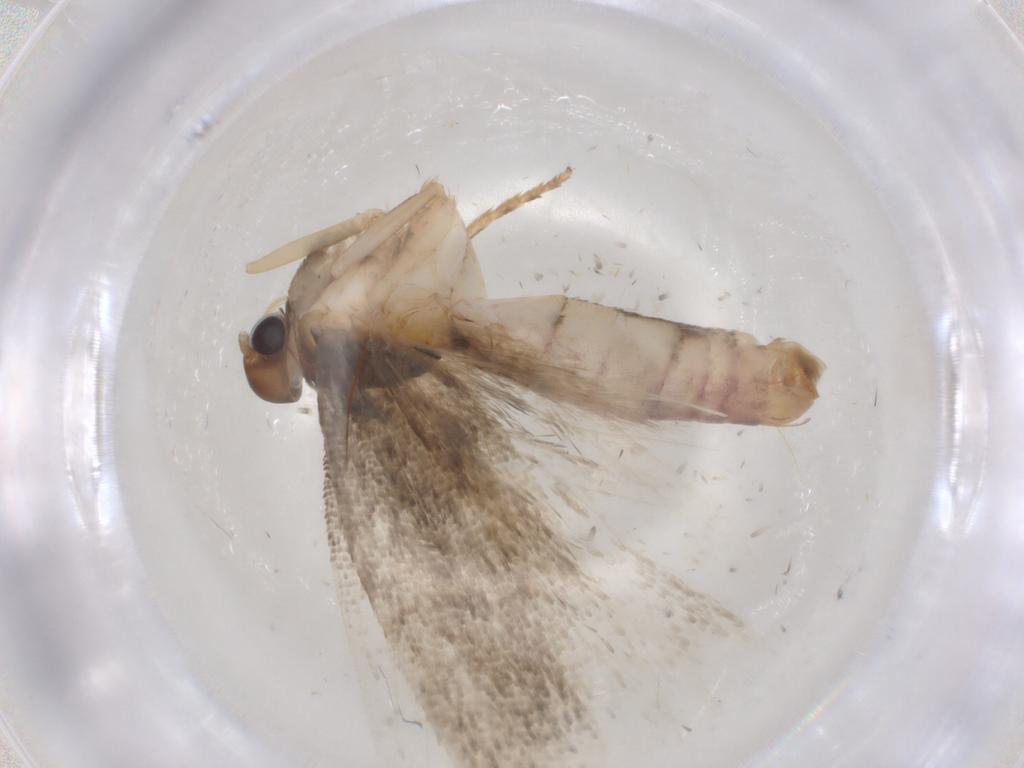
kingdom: Animalia
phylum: Arthropoda
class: Insecta
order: Lepidoptera
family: Gelechiidae
